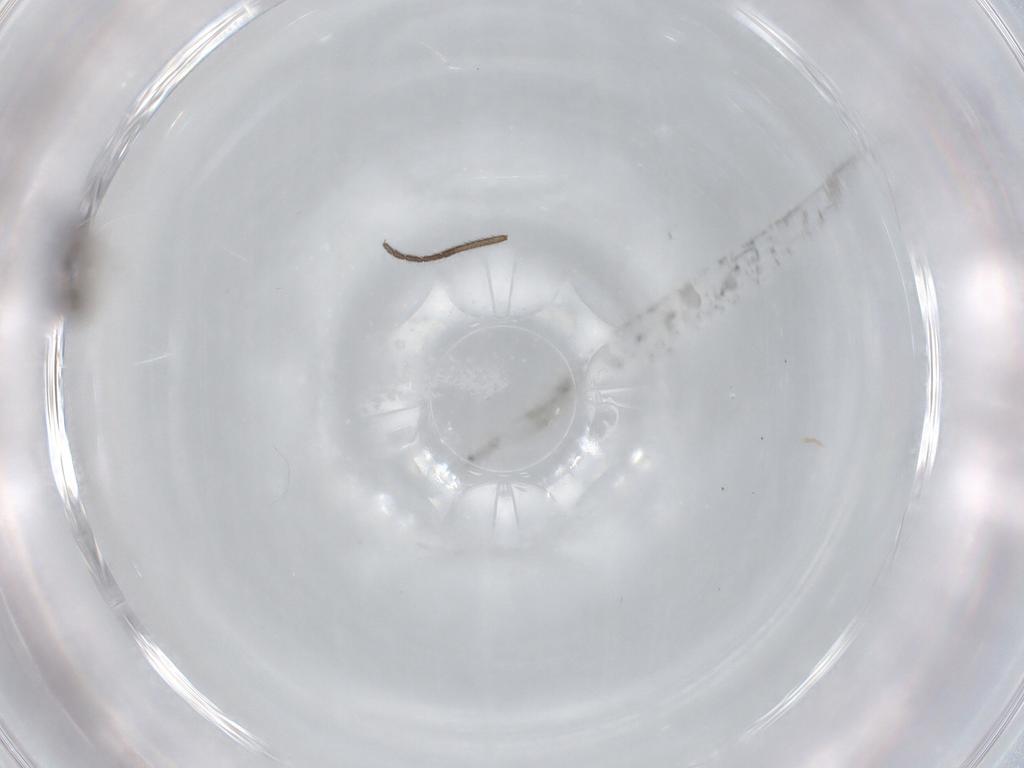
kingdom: Animalia
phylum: Arthropoda
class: Insecta
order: Diptera
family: Scatopsidae
